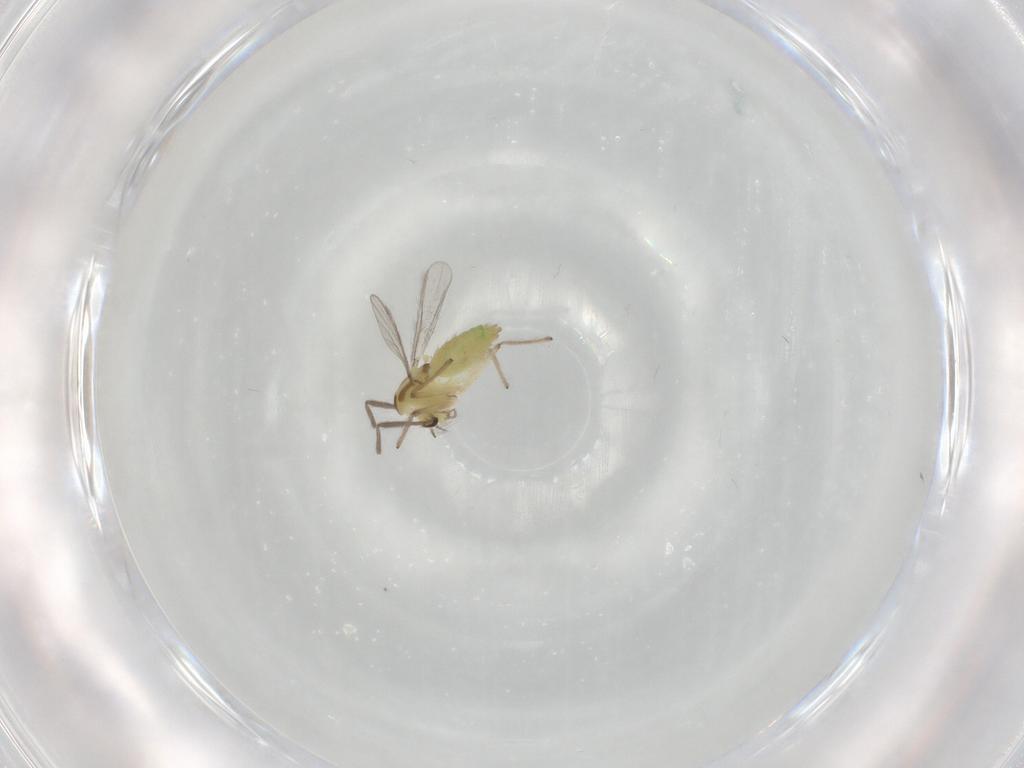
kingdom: Animalia
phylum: Arthropoda
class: Insecta
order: Diptera
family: Chironomidae
